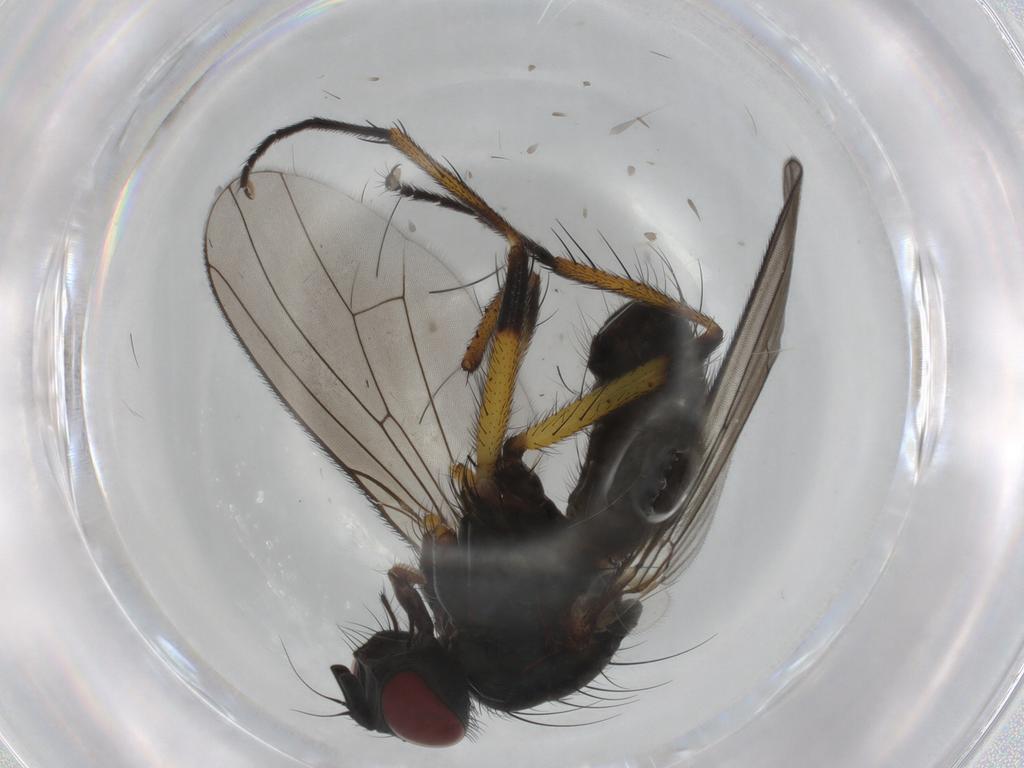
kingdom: Animalia
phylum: Arthropoda
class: Insecta
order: Diptera
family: Muscidae
